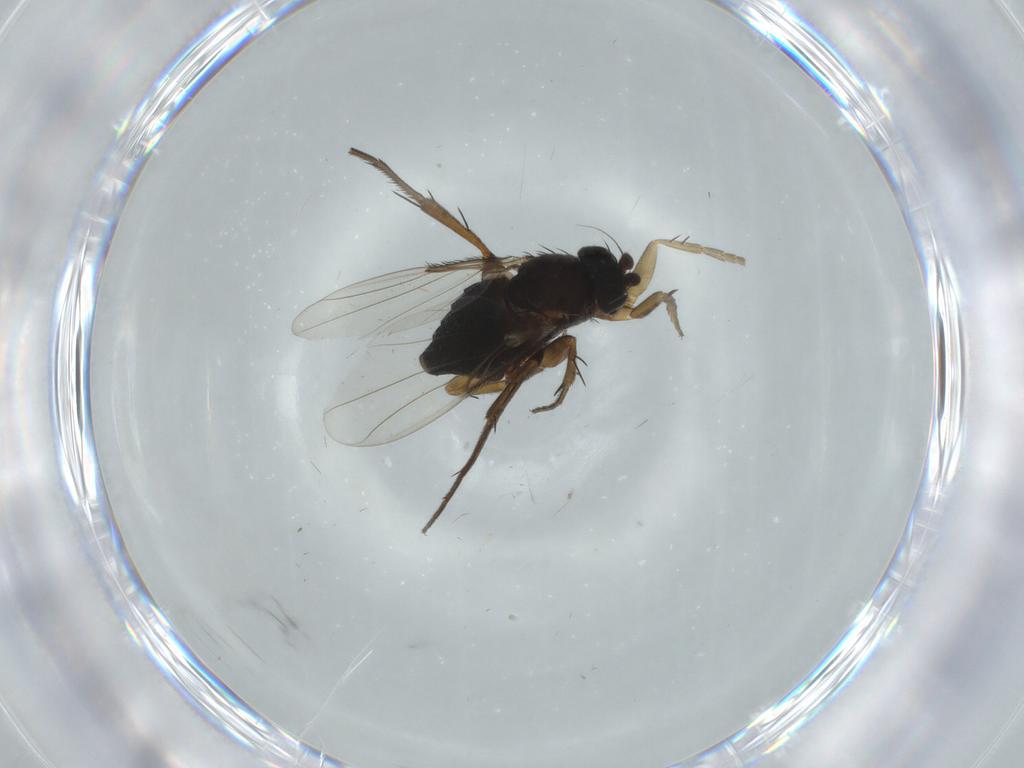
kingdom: Animalia
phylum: Arthropoda
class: Insecta
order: Diptera
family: Phoridae
